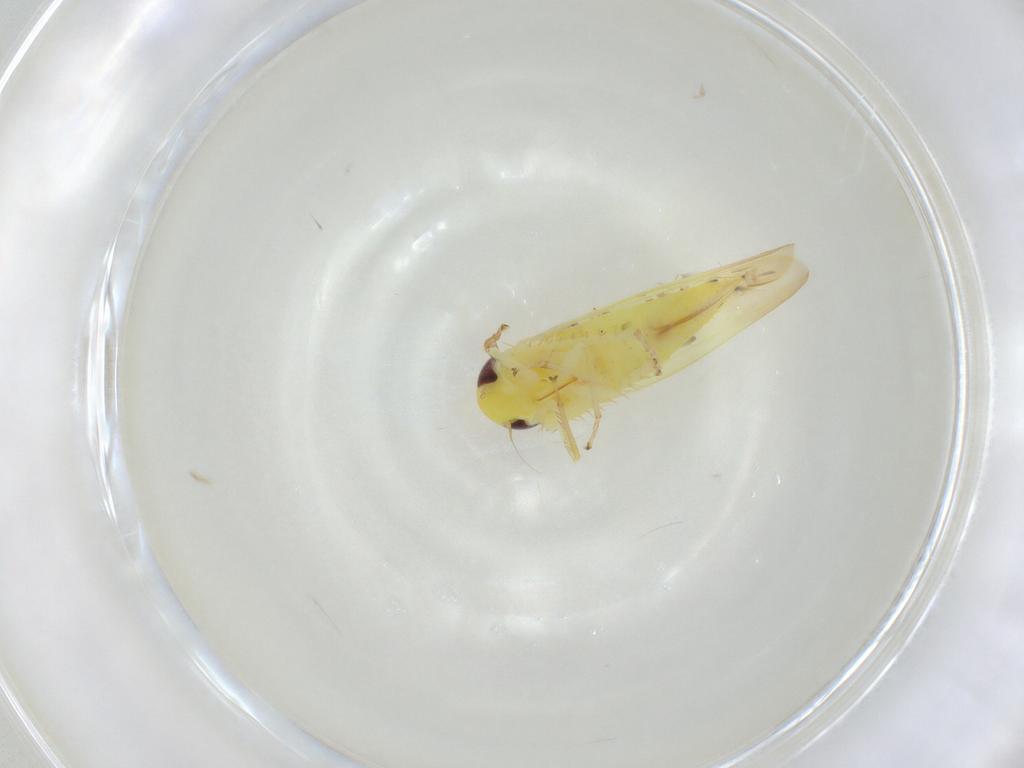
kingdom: Animalia
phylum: Arthropoda
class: Insecta
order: Hemiptera
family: Cicadellidae
